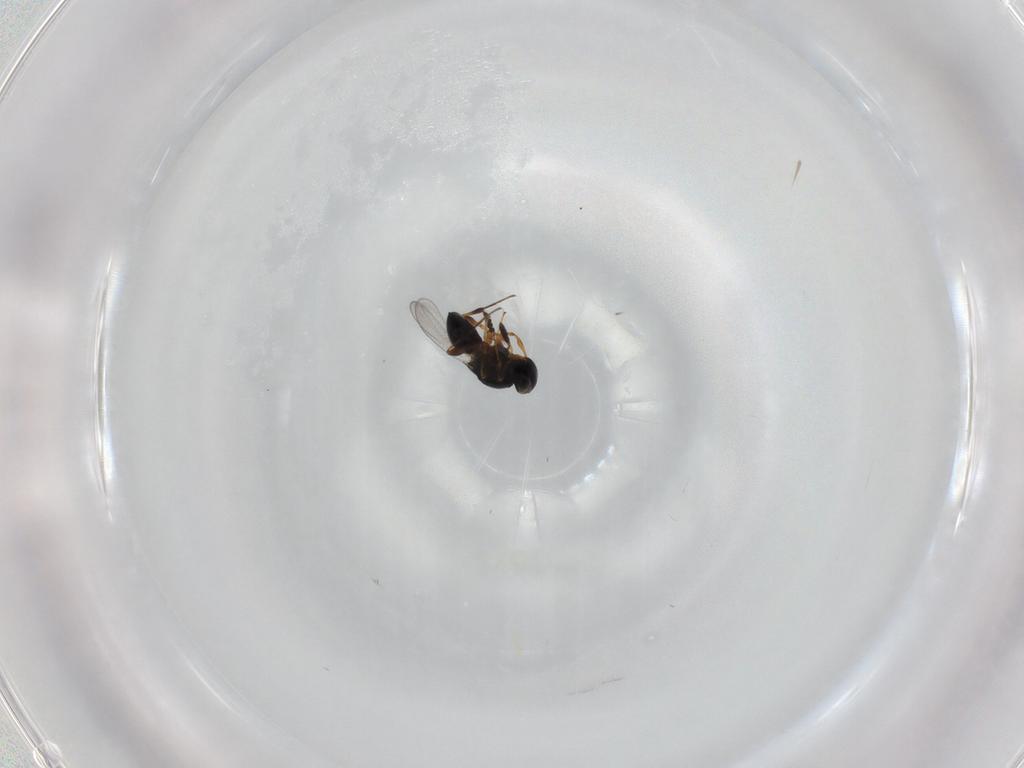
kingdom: Animalia
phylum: Arthropoda
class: Insecta
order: Hymenoptera
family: Platygastridae
